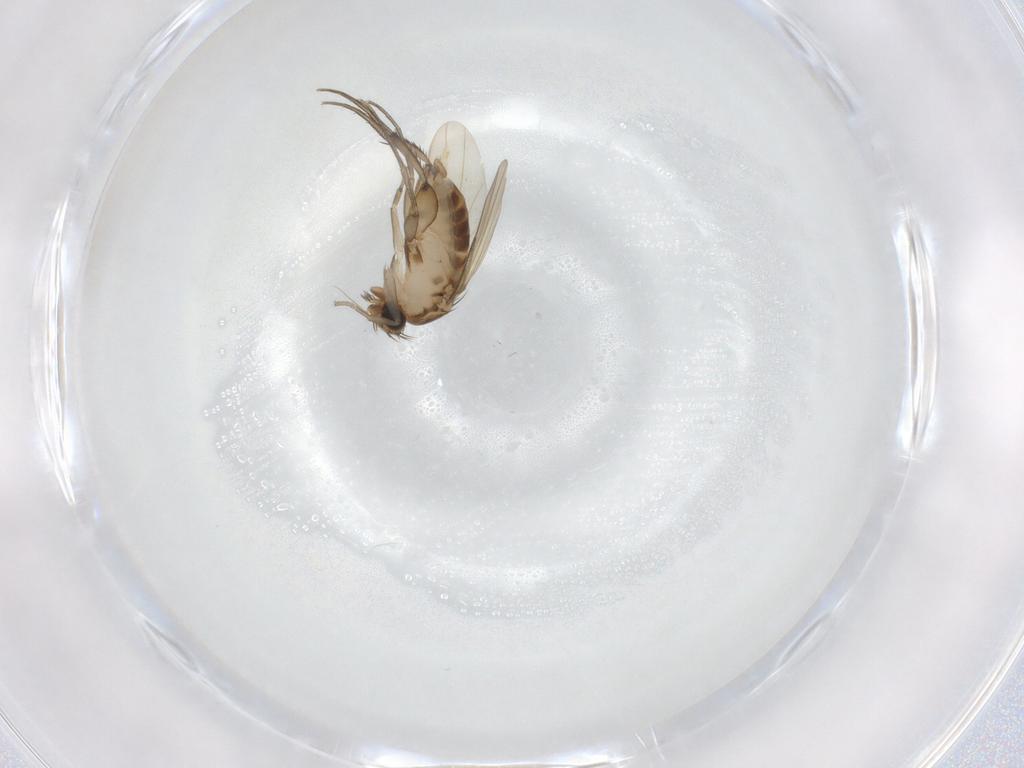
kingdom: Animalia
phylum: Arthropoda
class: Insecta
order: Diptera
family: Phoridae
